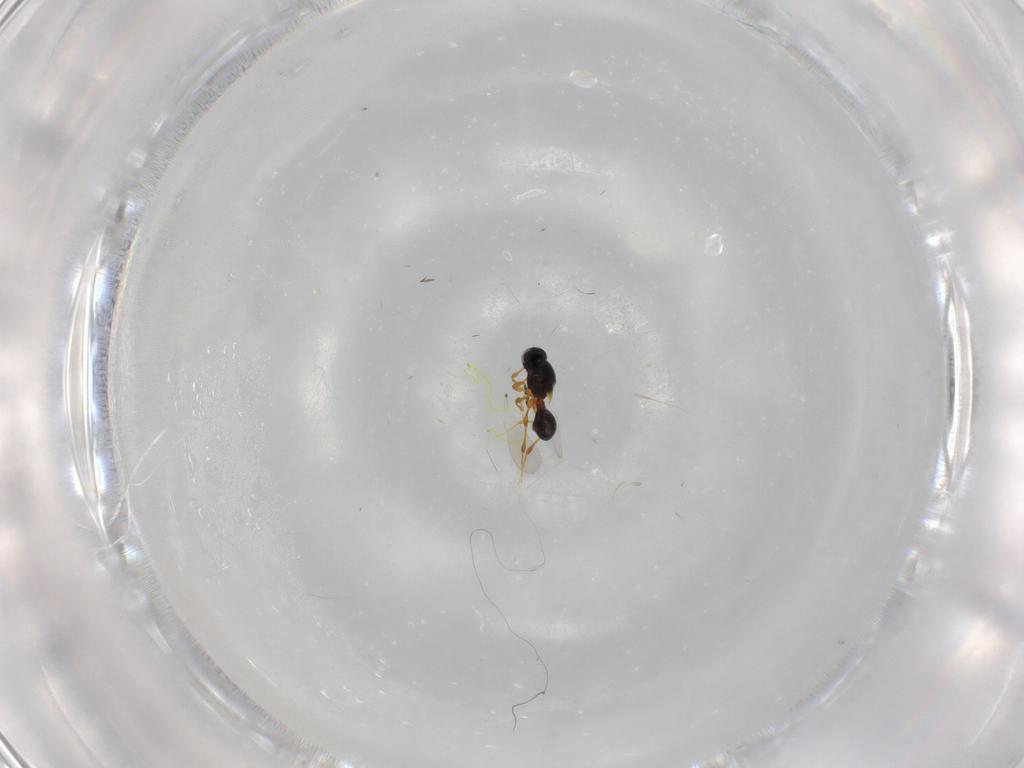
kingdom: Animalia
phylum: Arthropoda
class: Insecta
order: Hymenoptera
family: Platygastridae
